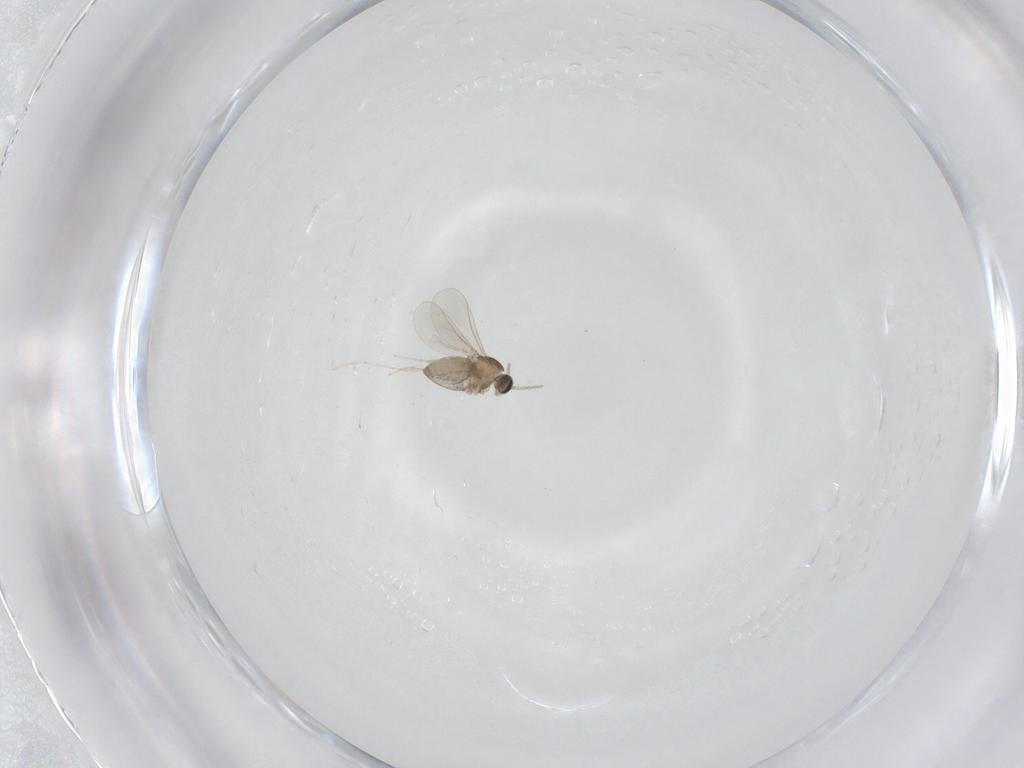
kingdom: Animalia
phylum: Arthropoda
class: Insecta
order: Diptera
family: Cecidomyiidae
